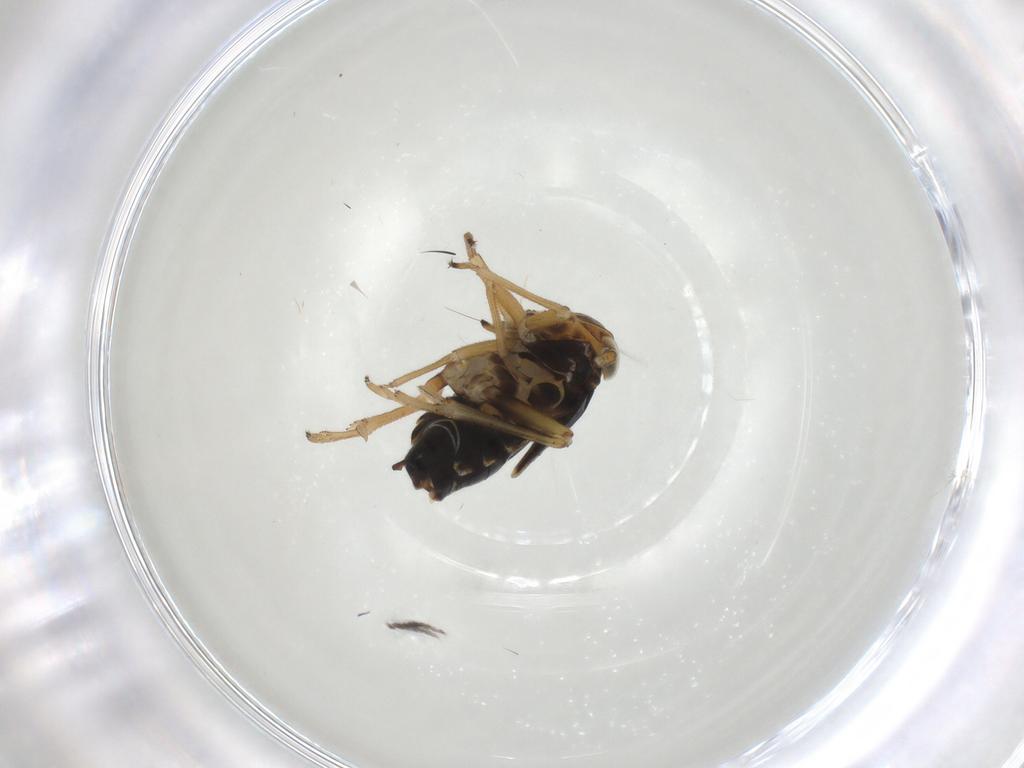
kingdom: Animalia
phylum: Arthropoda
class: Insecta
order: Hemiptera
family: Delphacidae
